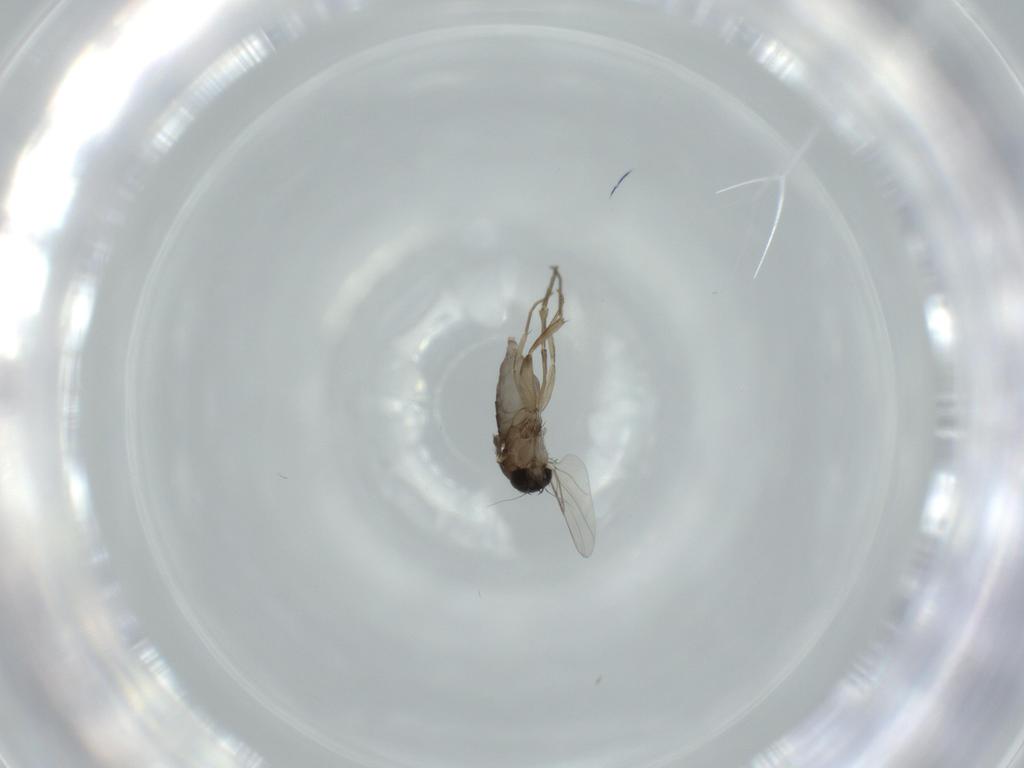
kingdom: Animalia
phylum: Arthropoda
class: Insecta
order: Diptera
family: Phoridae
